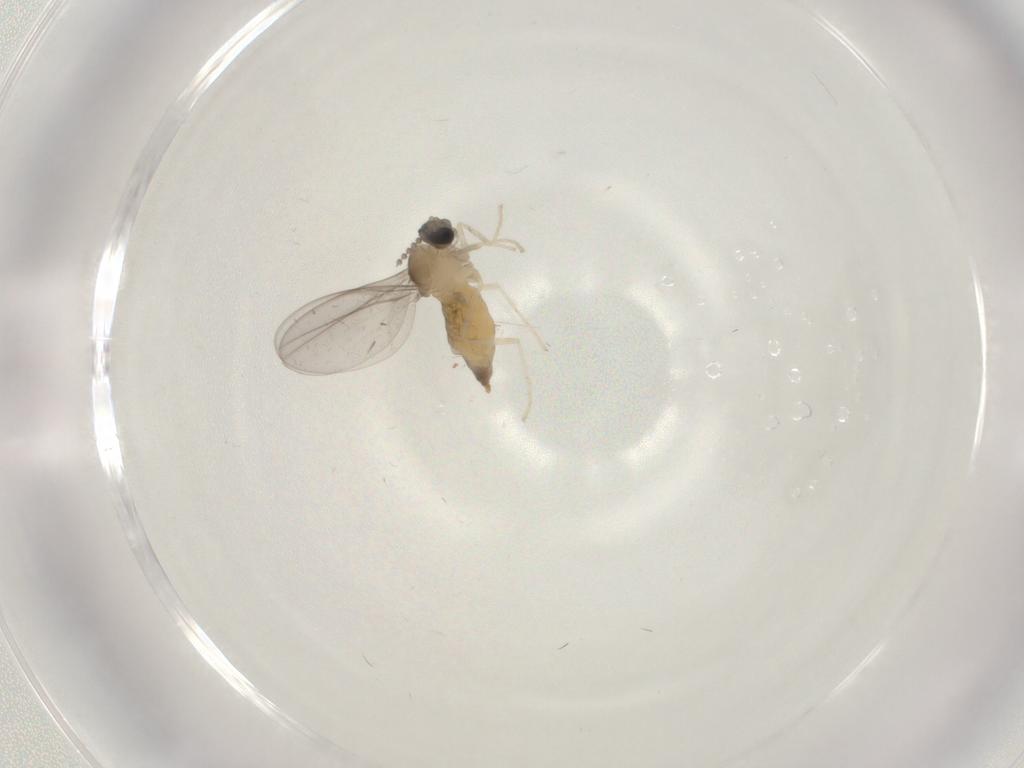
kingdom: Animalia
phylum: Arthropoda
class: Insecta
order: Diptera
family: Cecidomyiidae
